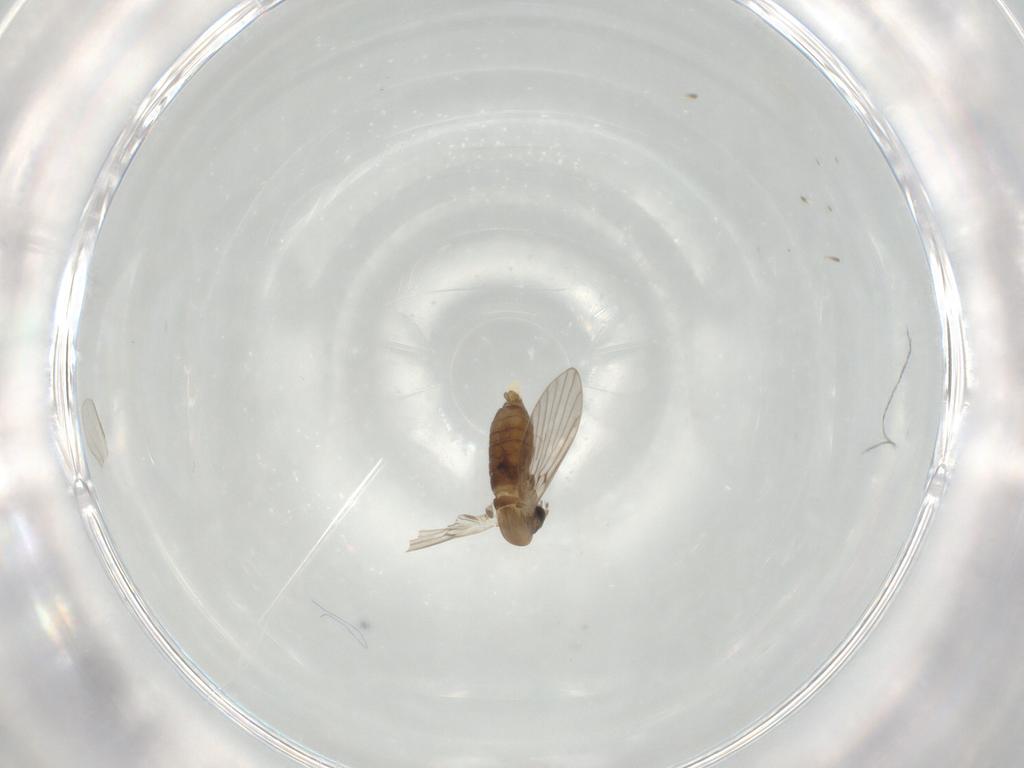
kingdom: Animalia
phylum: Arthropoda
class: Insecta
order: Diptera
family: Psychodidae
